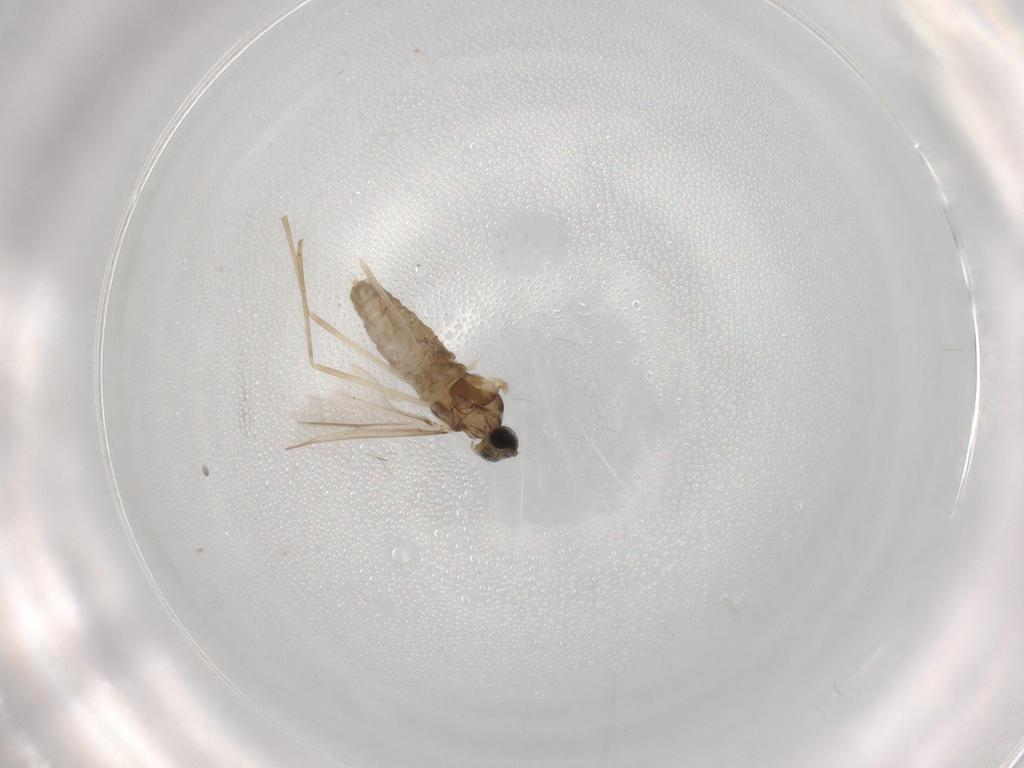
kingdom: Animalia
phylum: Arthropoda
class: Insecta
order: Diptera
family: Cecidomyiidae
